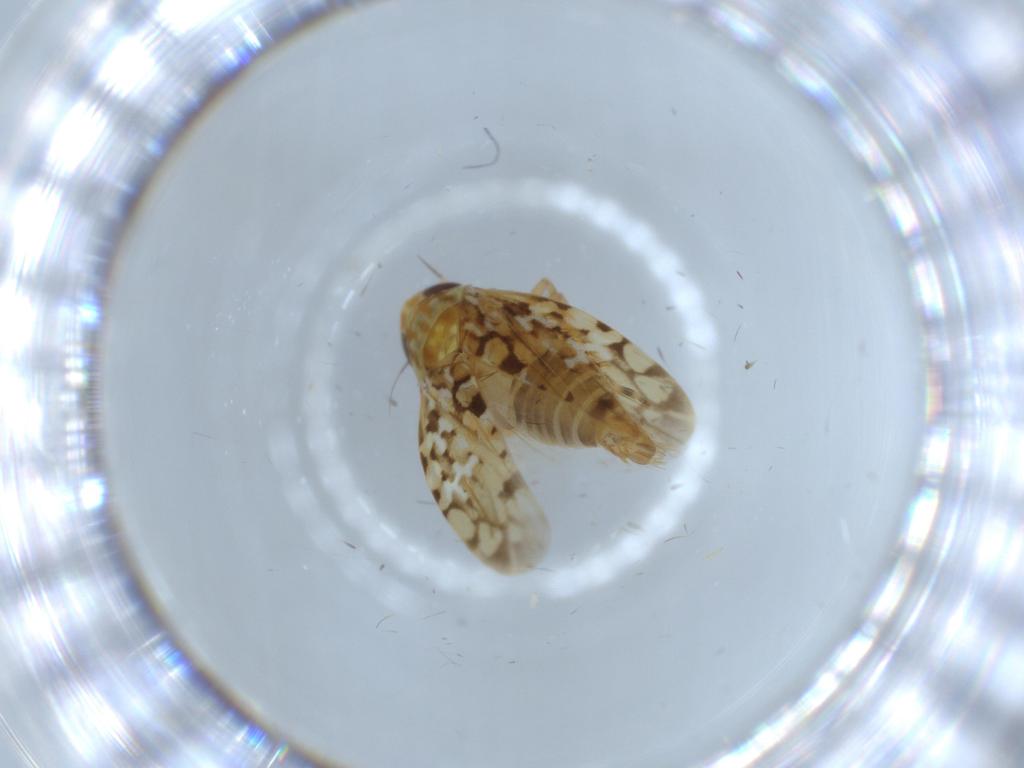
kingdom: Animalia
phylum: Arthropoda
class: Insecta
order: Hemiptera
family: Cicadellidae
